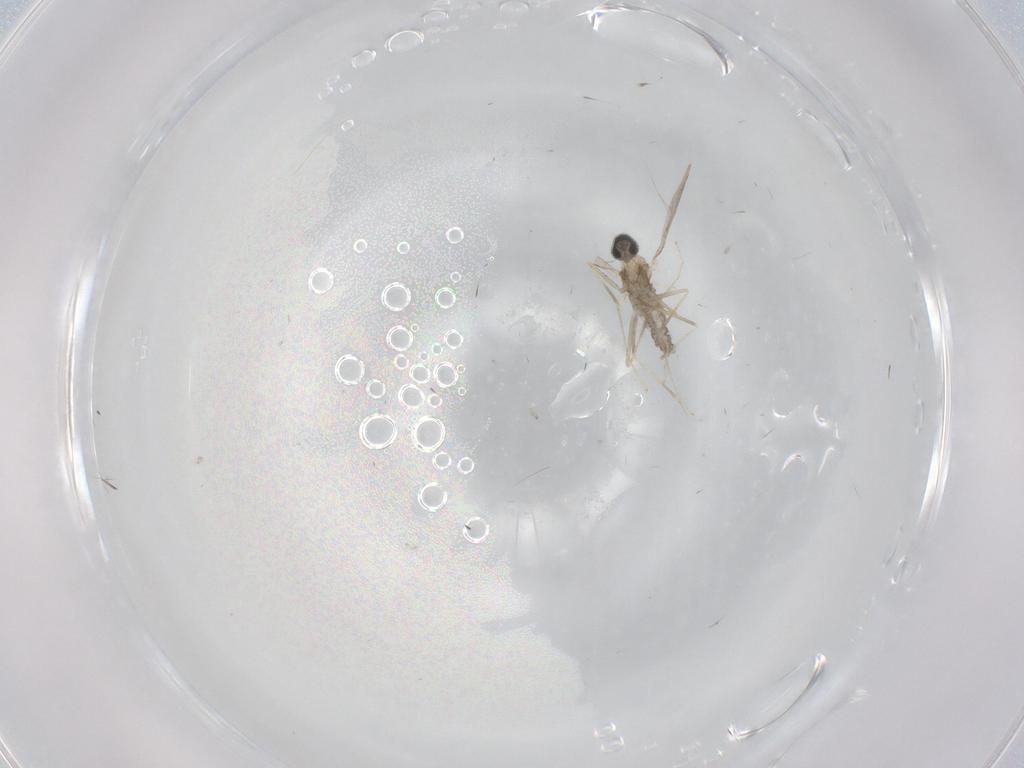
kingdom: Animalia
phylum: Arthropoda
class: Insecta
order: Diptera
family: Cecidomyiidae
